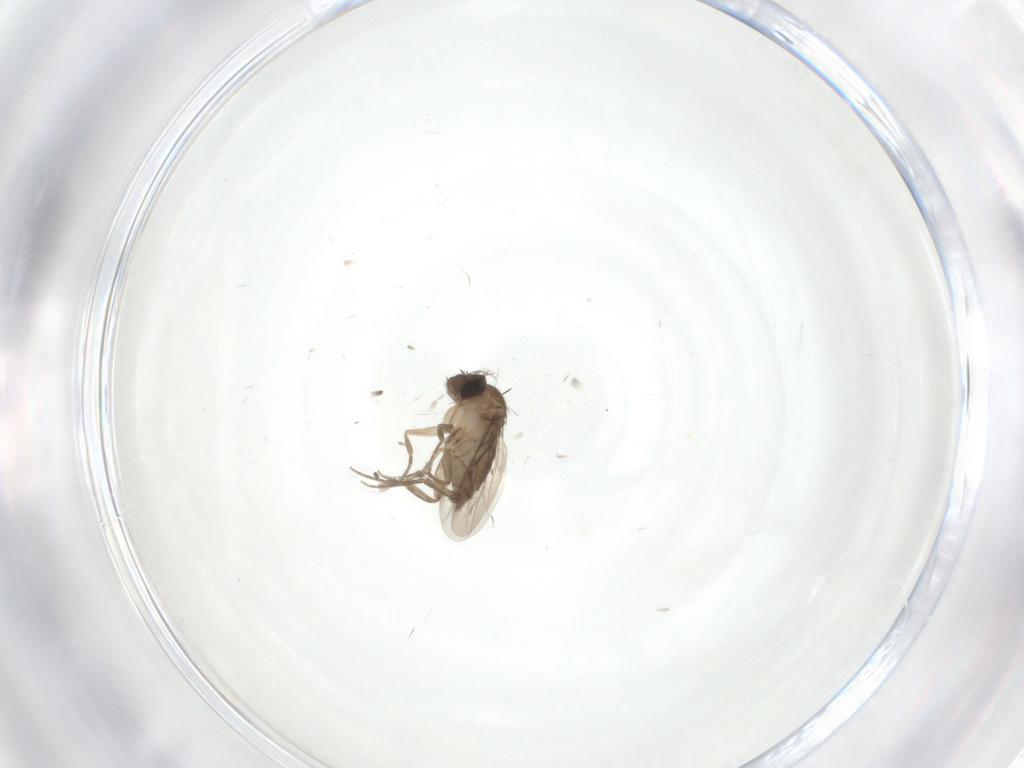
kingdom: Animalia
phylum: Arthropoda
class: Insecta
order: Diptera
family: Phoridae
